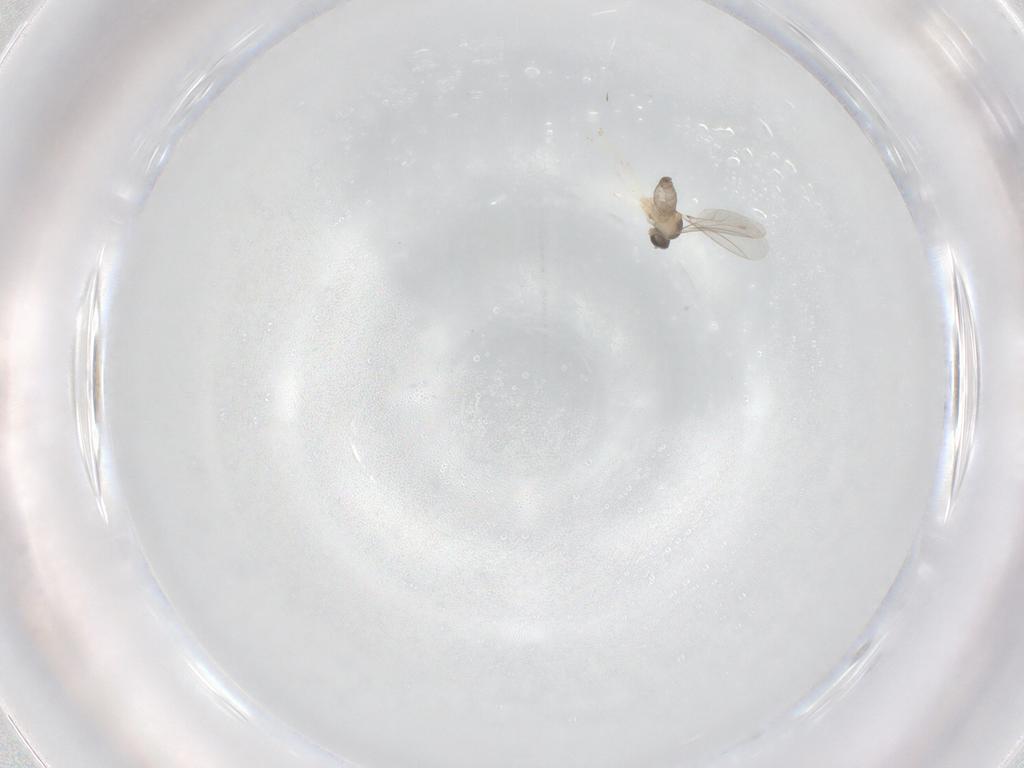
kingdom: Animalia
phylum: Arthropoda
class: Insecta
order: Diptera
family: Cecidomyiidae
